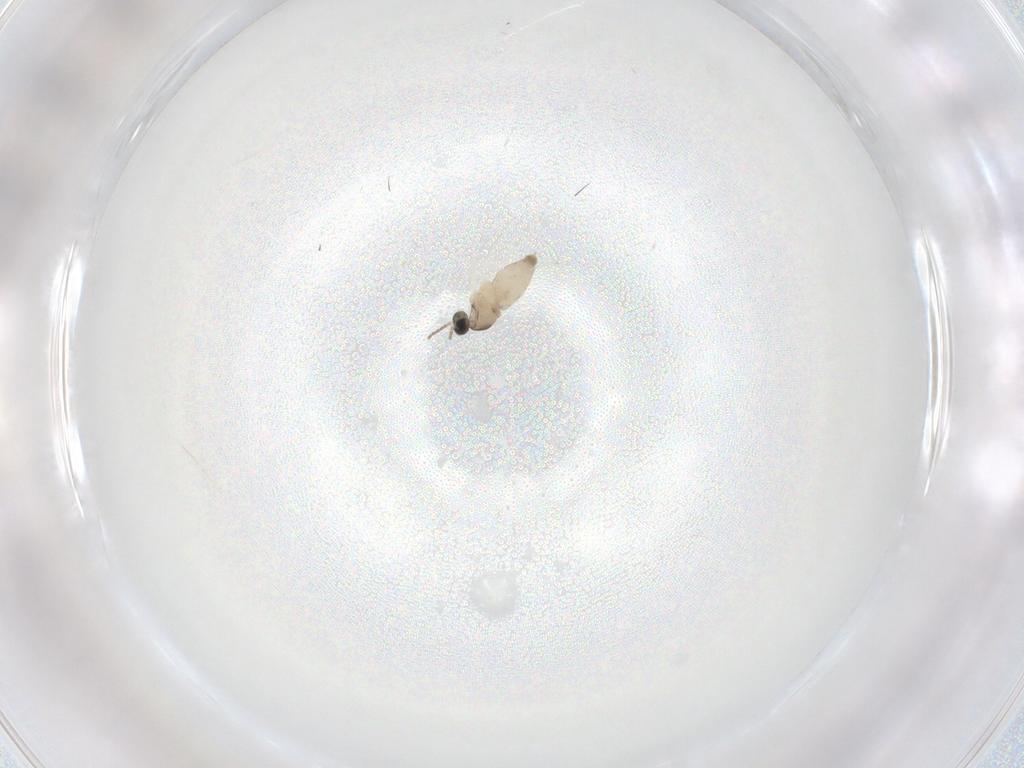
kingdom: Animalia
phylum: Arthropoda
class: Insecta
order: Diptera
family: Cecidomyiidae
